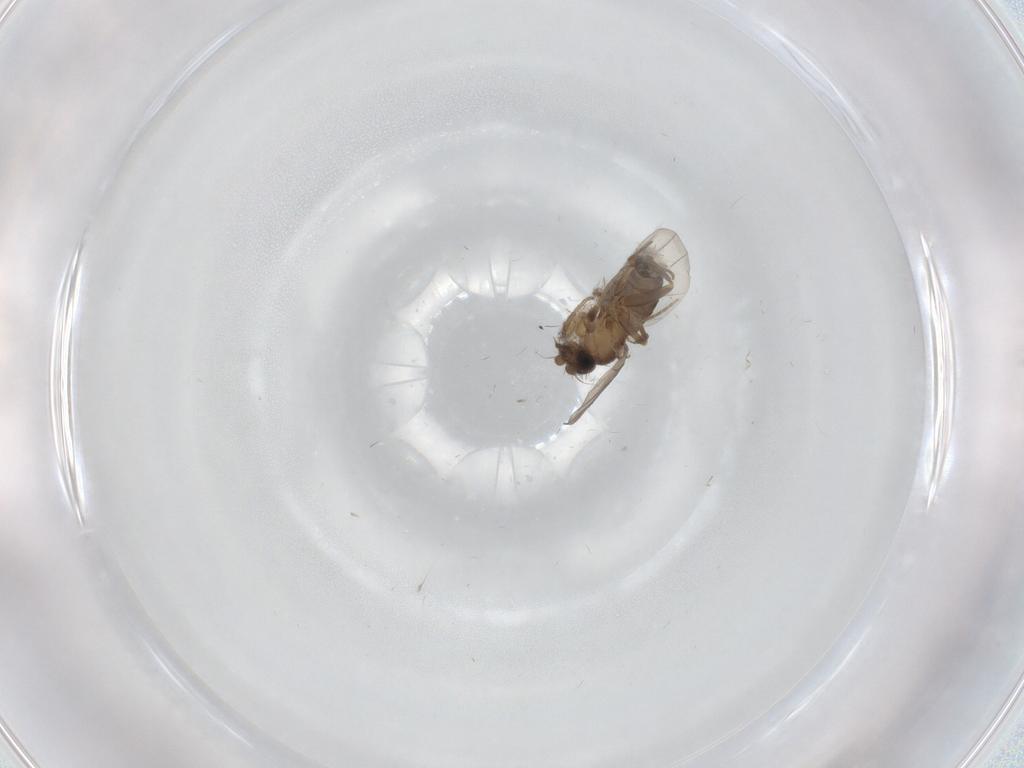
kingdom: Animalia
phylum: Arthropoda
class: Insecta
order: Diptera
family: Phoridae
